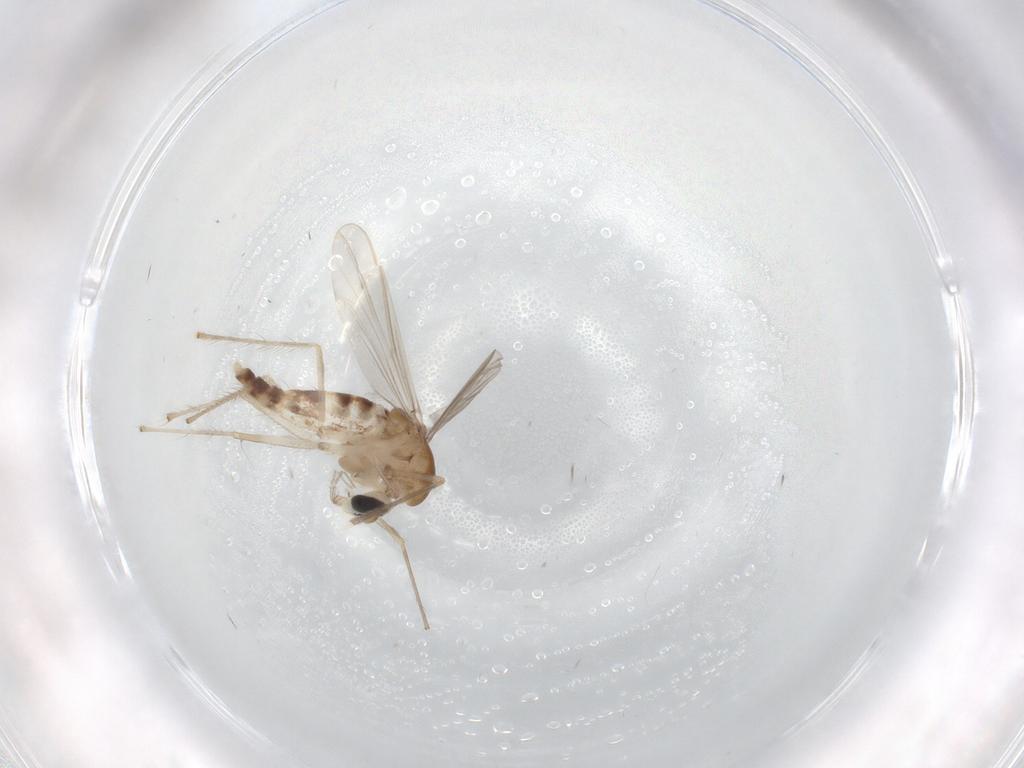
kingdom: Animalia
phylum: Arthropoda
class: Insecta
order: Diptera
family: Chironomidae
